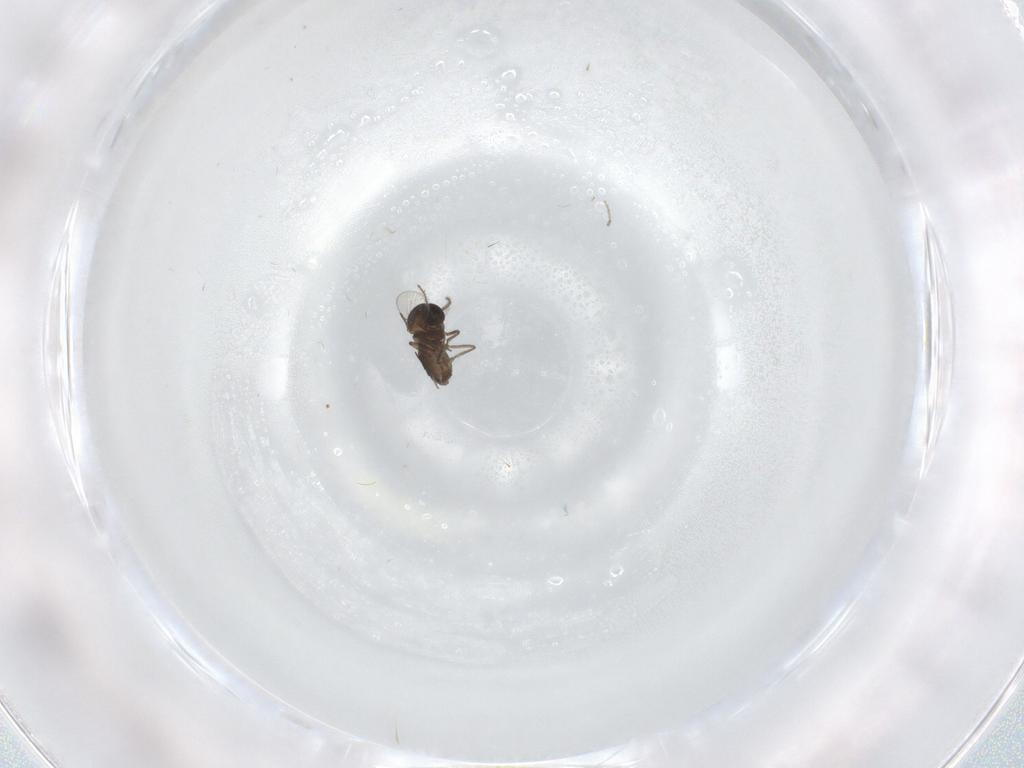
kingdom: Animalia
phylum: Arthropoda
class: Insecta
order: Diptera
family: Ceratopogonidae
